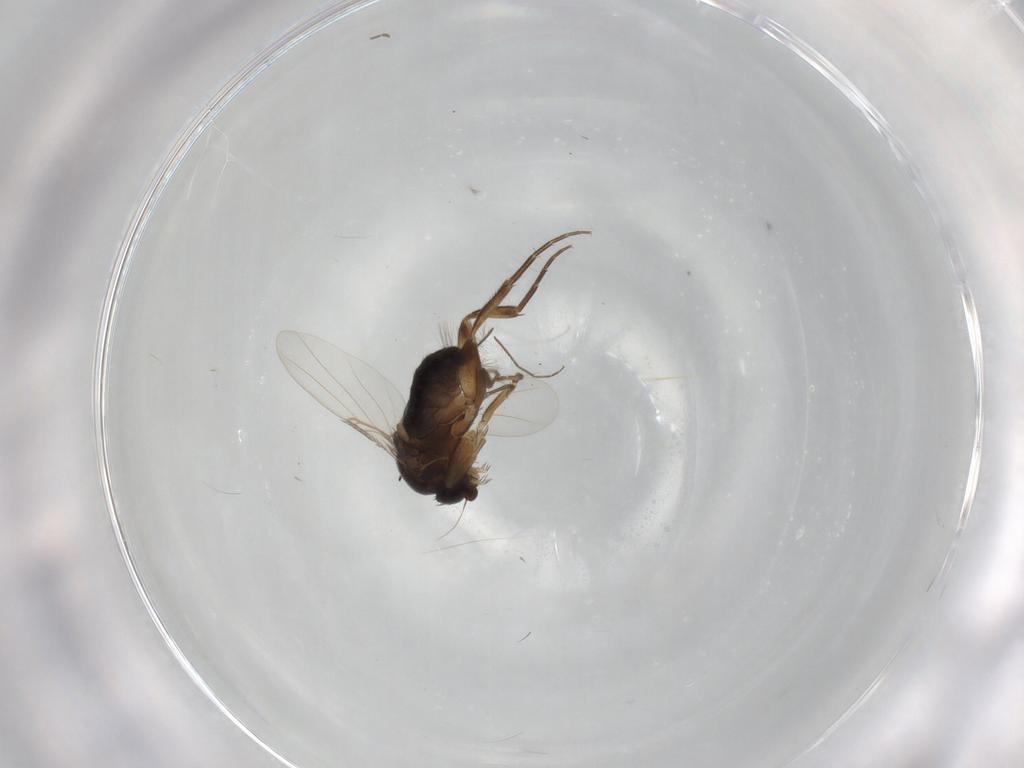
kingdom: Animalia
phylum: Arthropoda
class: Insecta
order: Diptera
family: Phoridae
